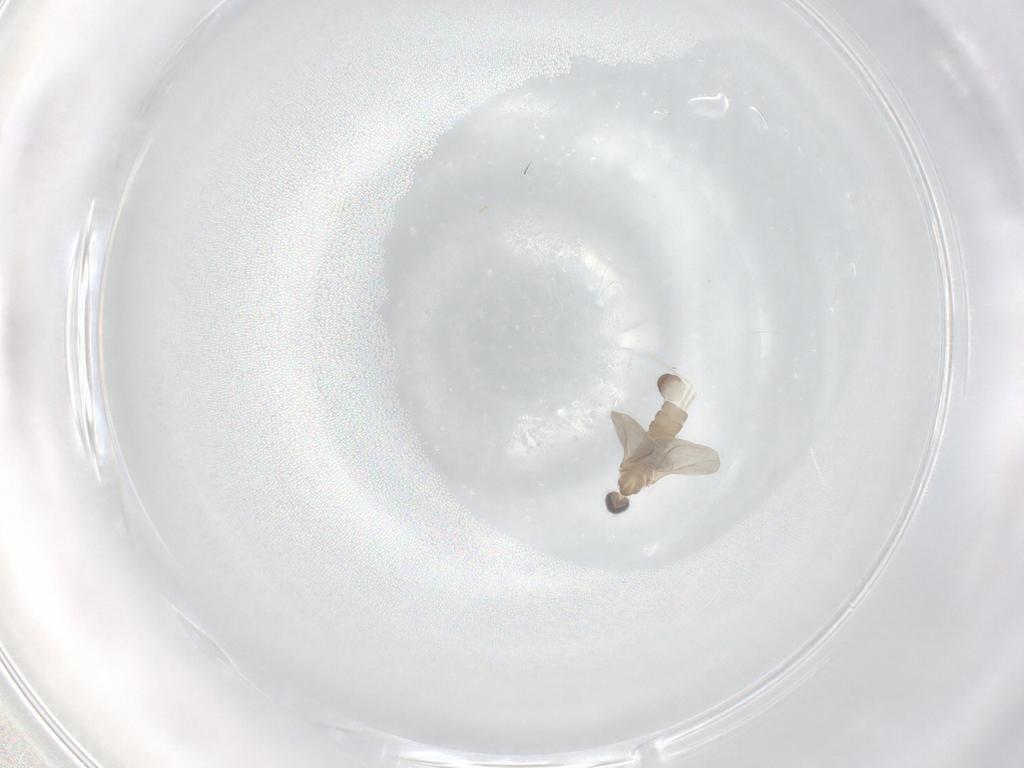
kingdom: Animalia
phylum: Arthropoda
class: Insecta
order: Diptera
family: Cecidomyiidae
